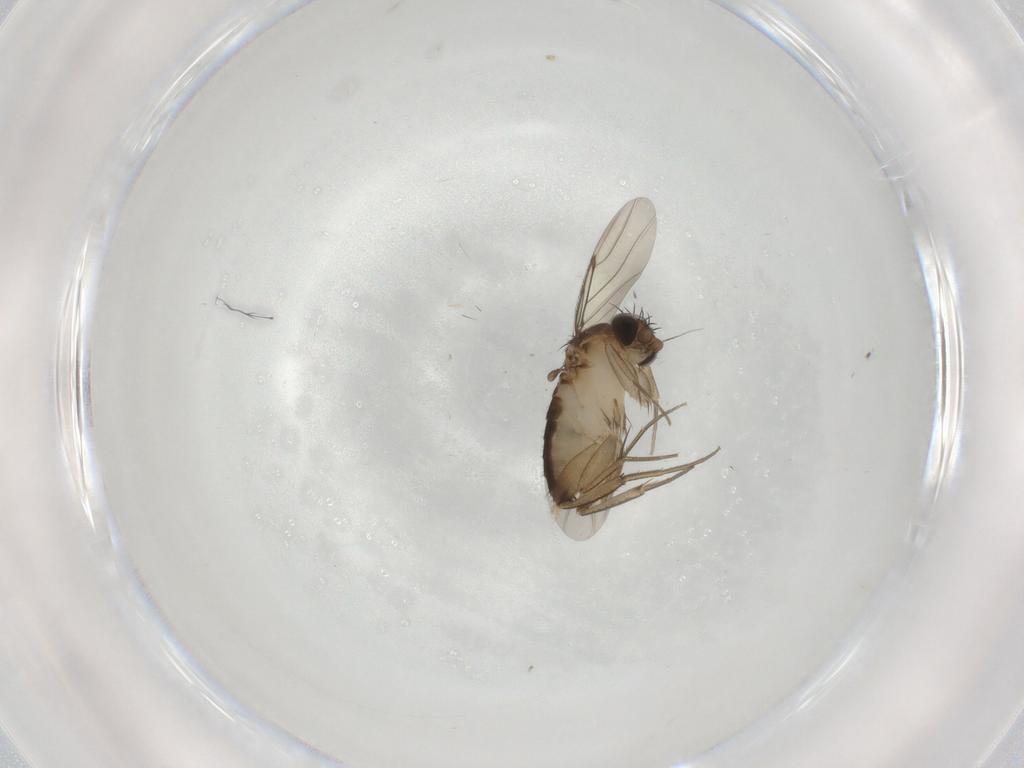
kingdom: Animalia
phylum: Arthropoda
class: Insecta
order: Diptera
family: Phoridae
